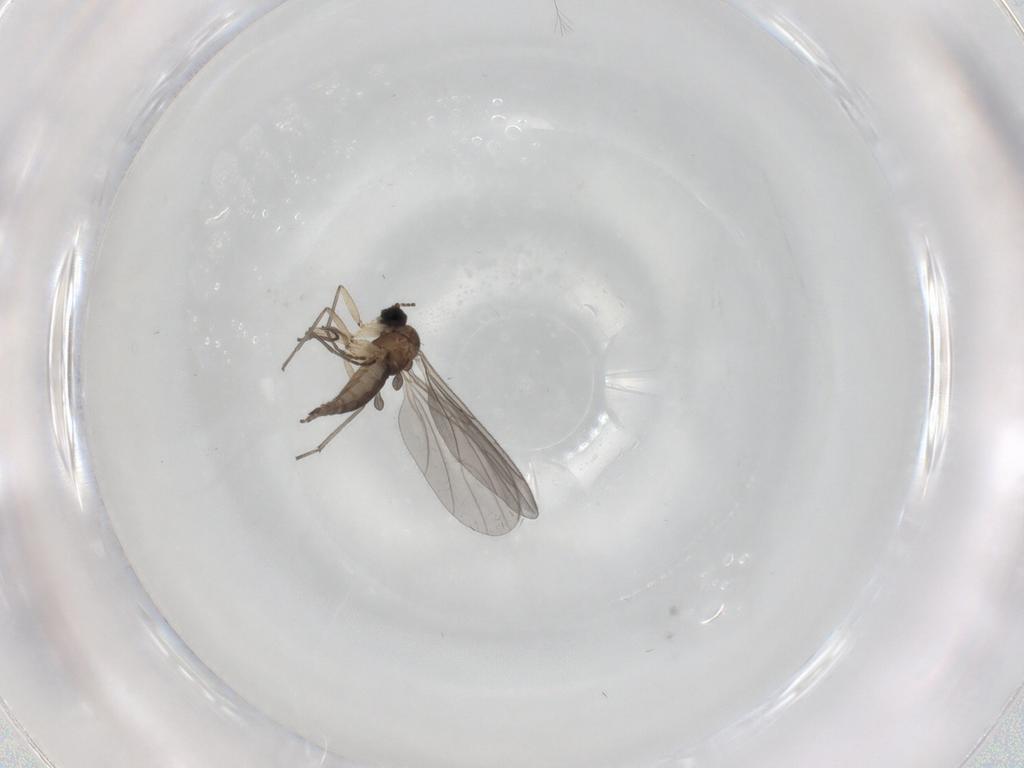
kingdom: Animalia
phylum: Arthropoda
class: Insecta
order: Diptera
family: Sciaridae
